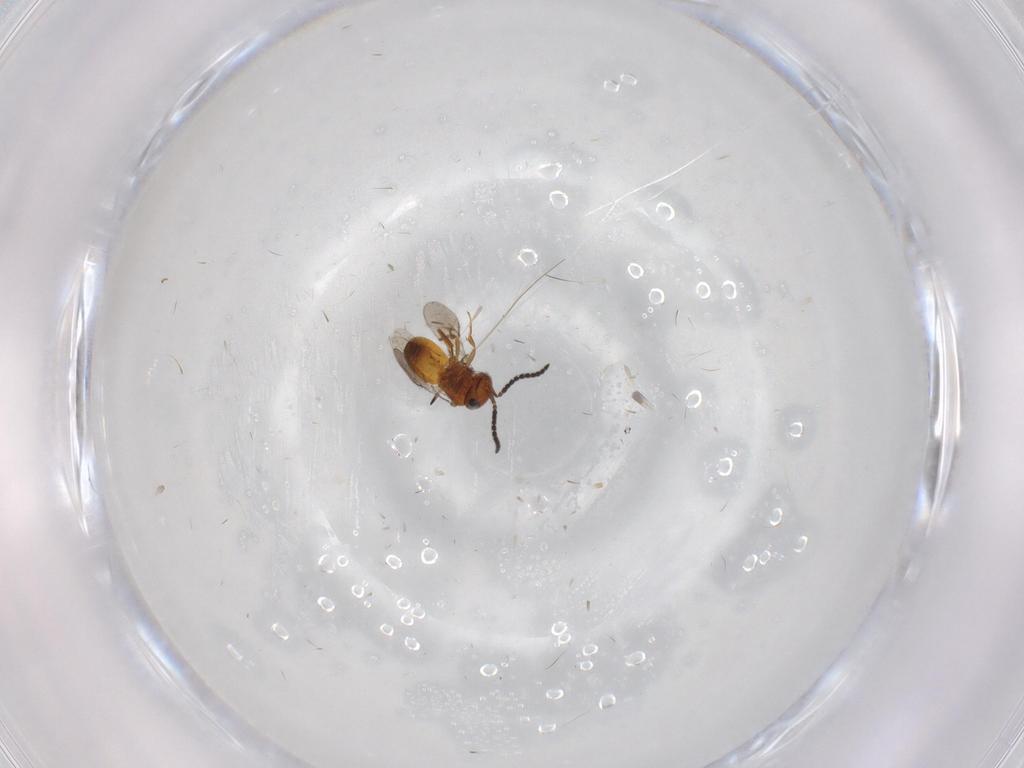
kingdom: Animalia
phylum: Arthropoda
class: Insecta
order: Hymenoptera
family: Scelionidae
